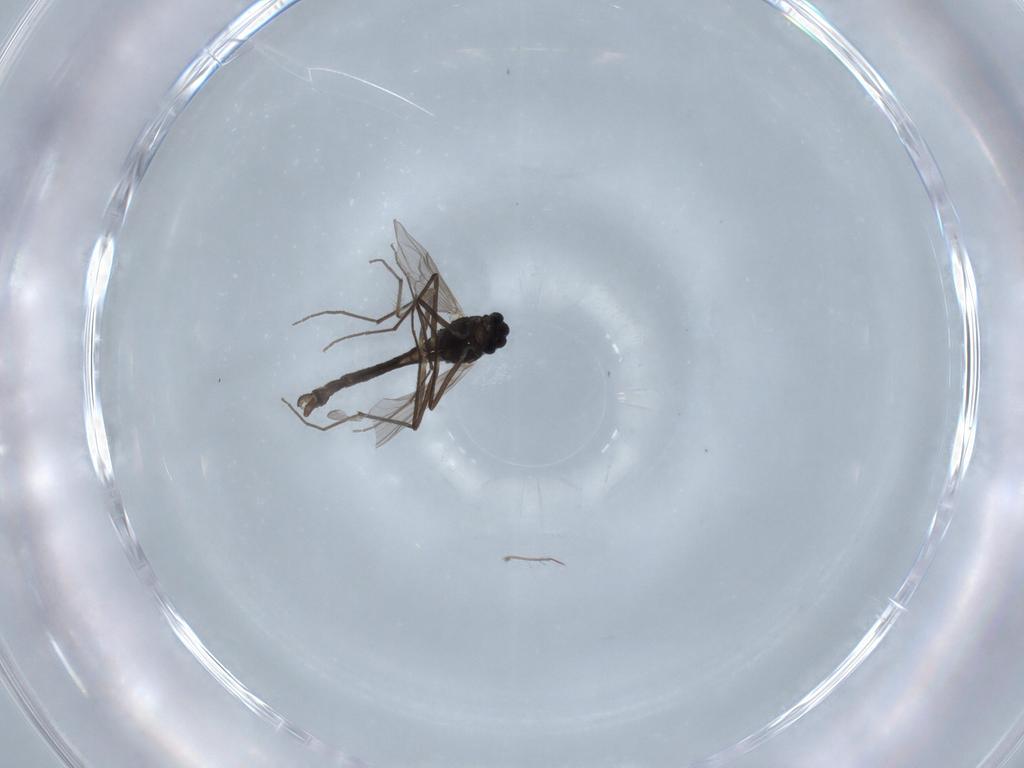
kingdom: Animalia
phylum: Arthropoda
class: Insecta
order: Diptera
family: Chironomidae
